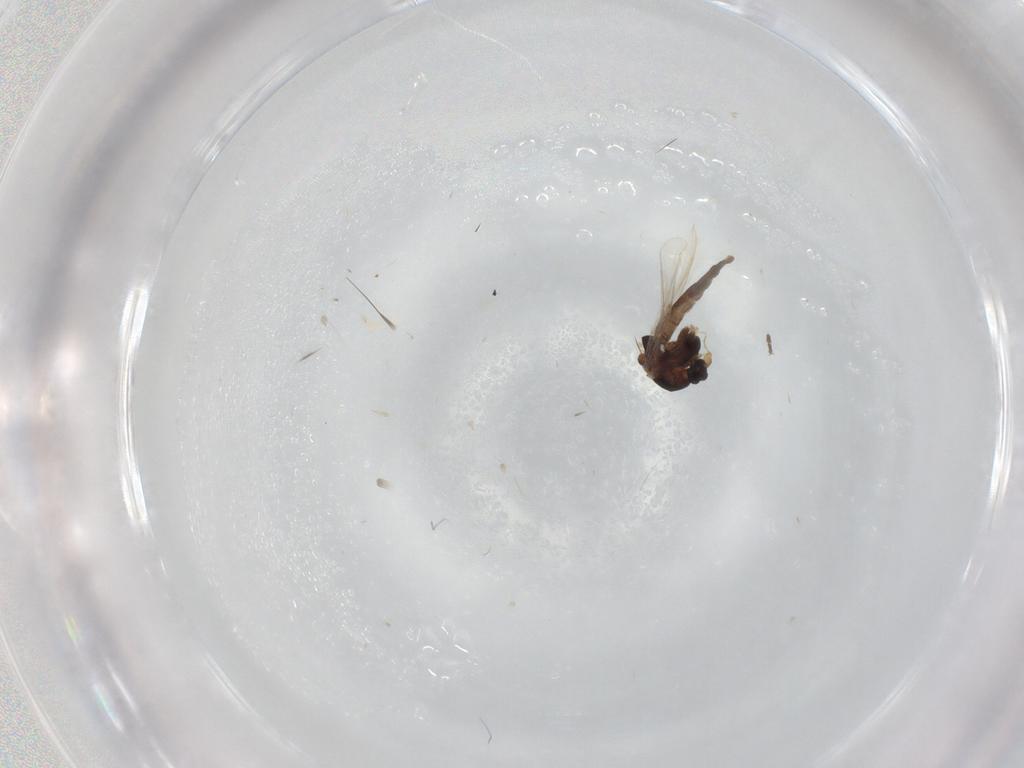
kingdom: Animalia
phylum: Arthropoda
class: Insecta
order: Diptera
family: Chironomidae
